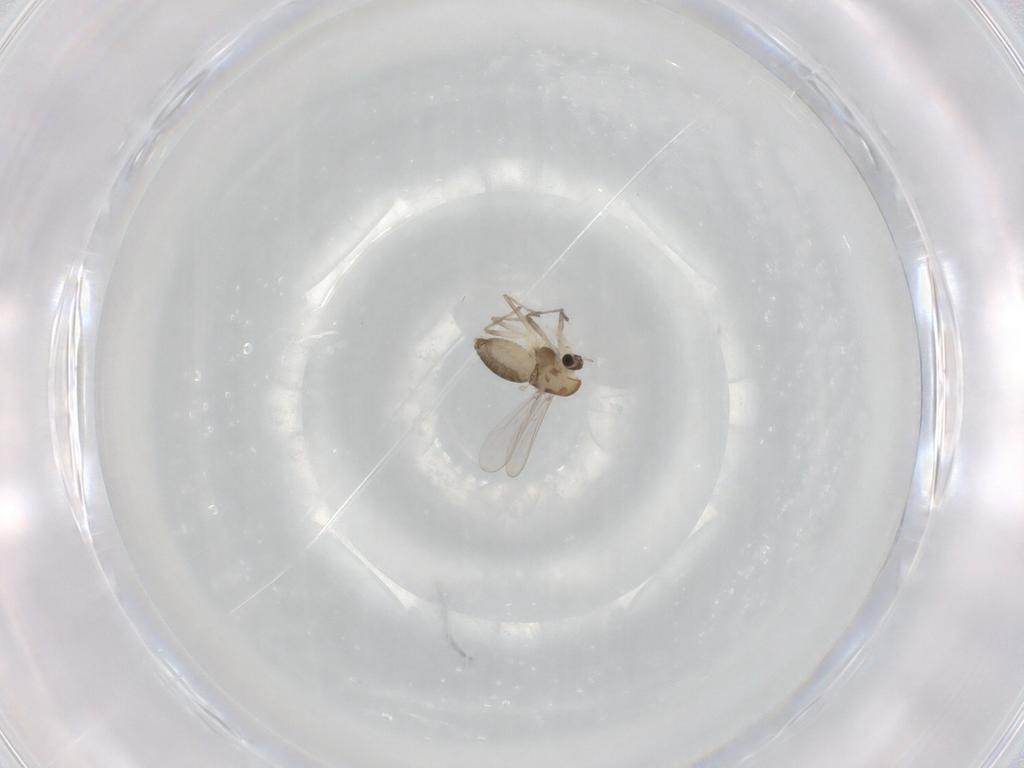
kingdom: Animalia
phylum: Arthropoda
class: Insecta
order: Diptera
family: Chironomidae
